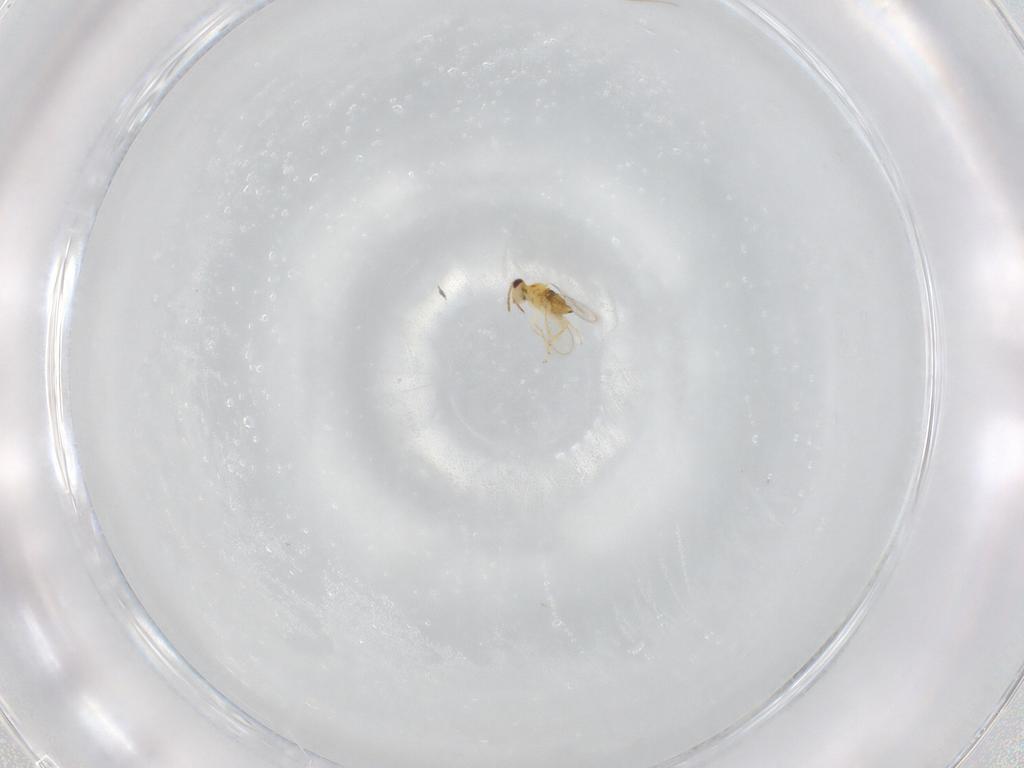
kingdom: Animalia
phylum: Arthropoda
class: Insecta
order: Hymenoptera
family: Aphelinidae
